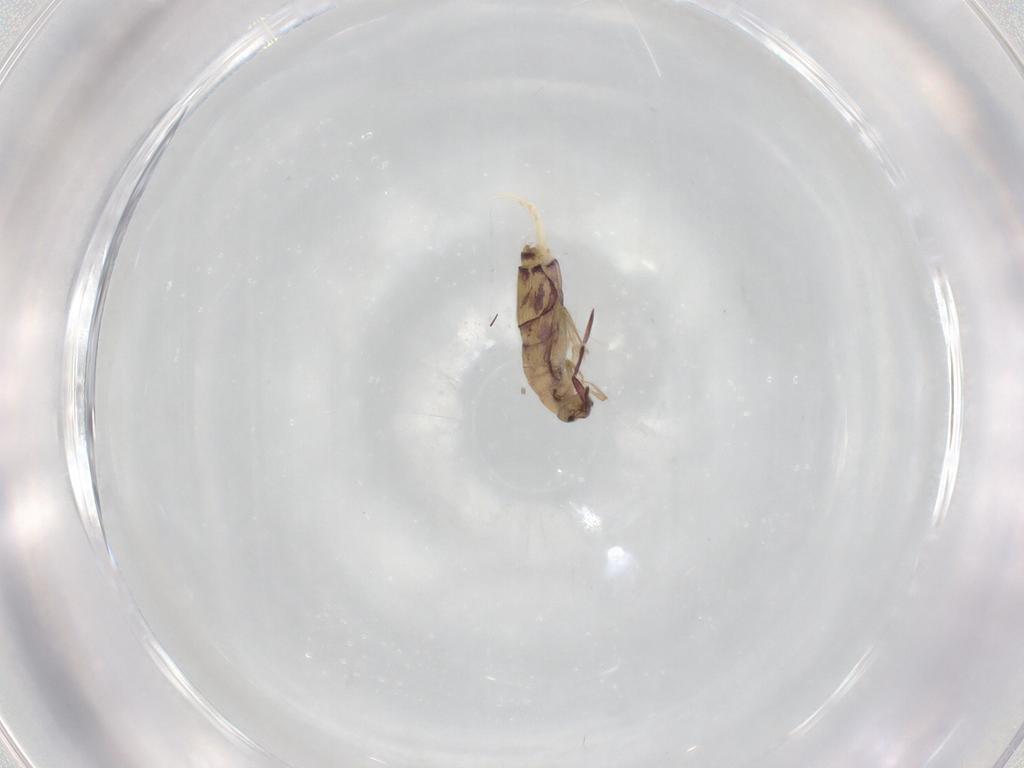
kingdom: Animalia
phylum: Arthropoda
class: Collembola
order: Entomobryomorpha
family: Entomobryidae
